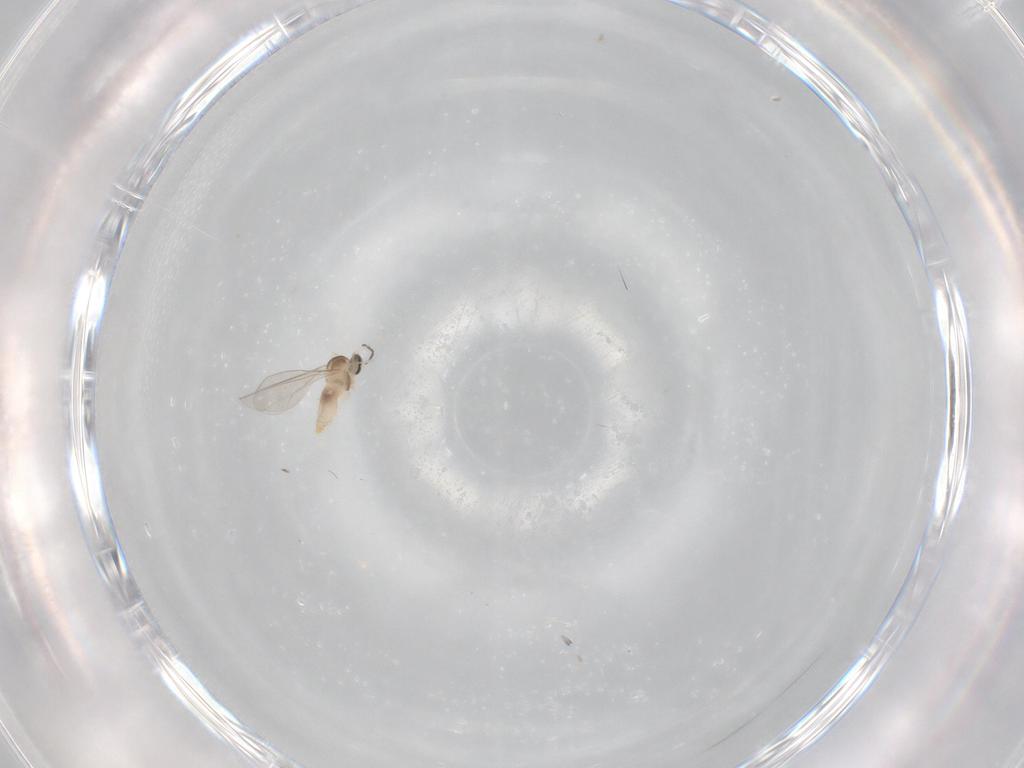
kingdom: Animalia
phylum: Arthropoda
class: Insecta
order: Diptera
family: Cecidomyiidae
